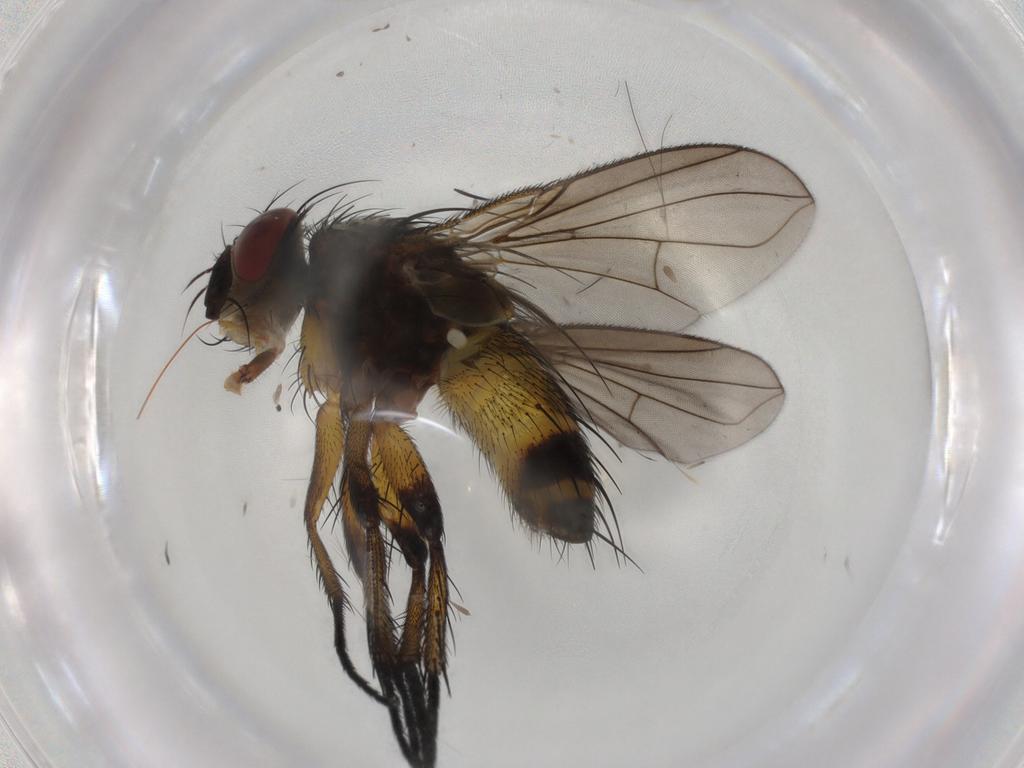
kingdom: Animalia
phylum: Arthropoda
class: Insecta
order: Diptera
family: Tachinidae
